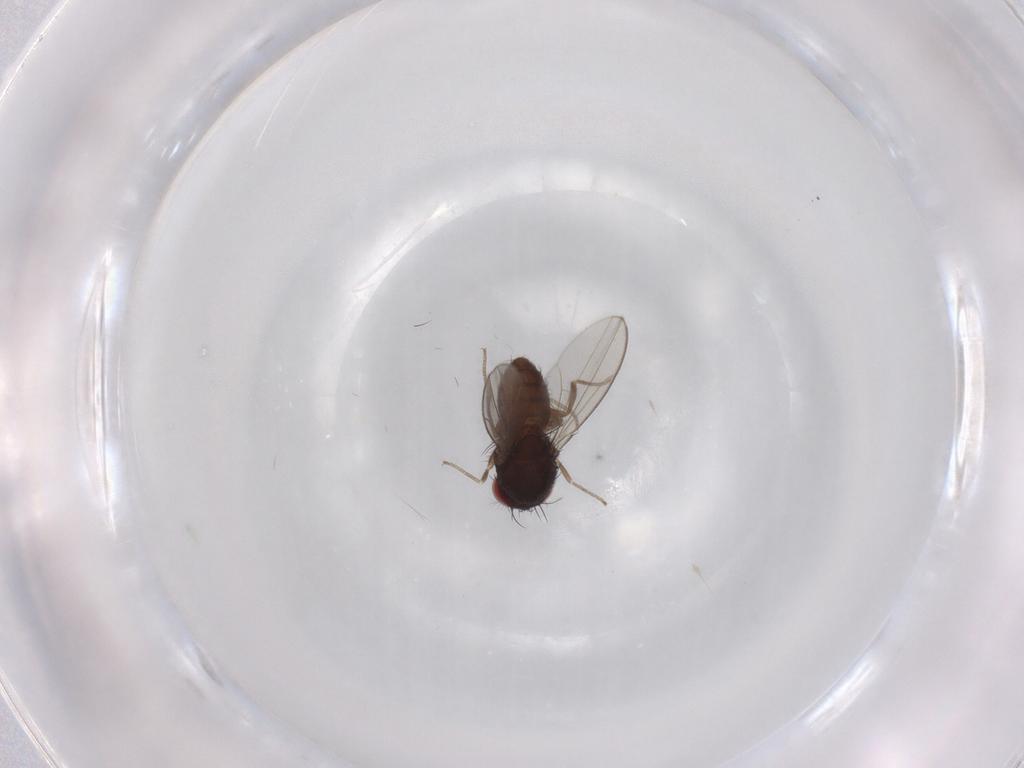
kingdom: Animalia
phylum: Arthropoda
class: Insecta
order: Diptera
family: Drosophilidae
